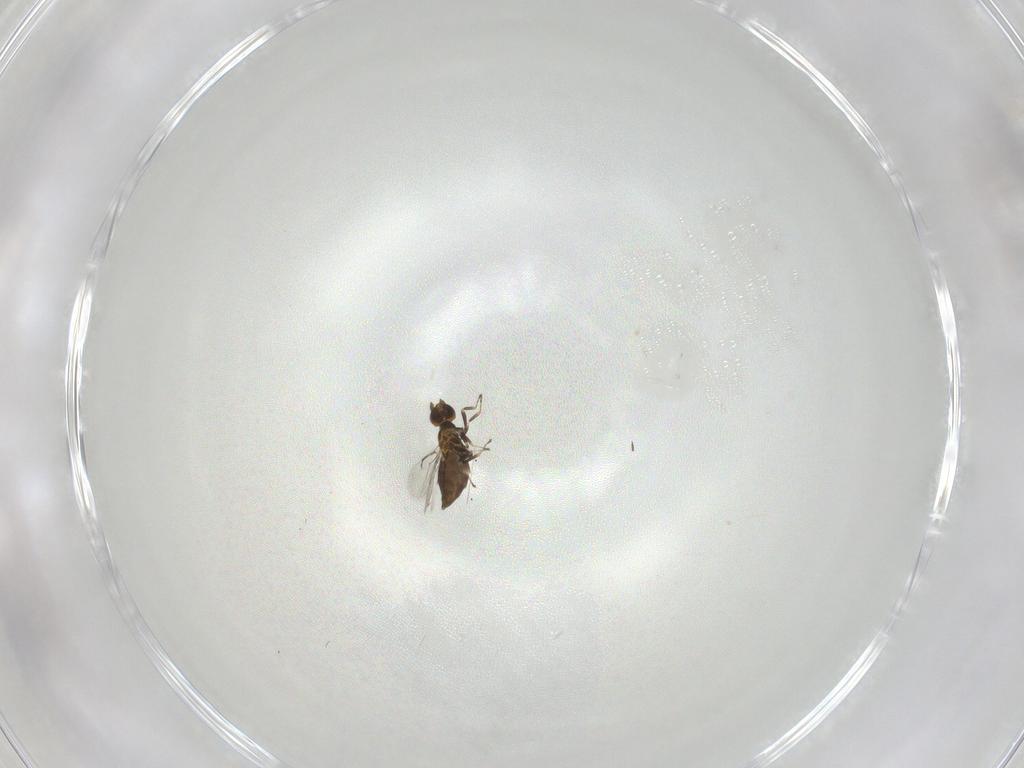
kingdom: Animalia
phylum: Arthropoda
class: Insecta
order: Hymenoptera
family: Trichogrammatidae
